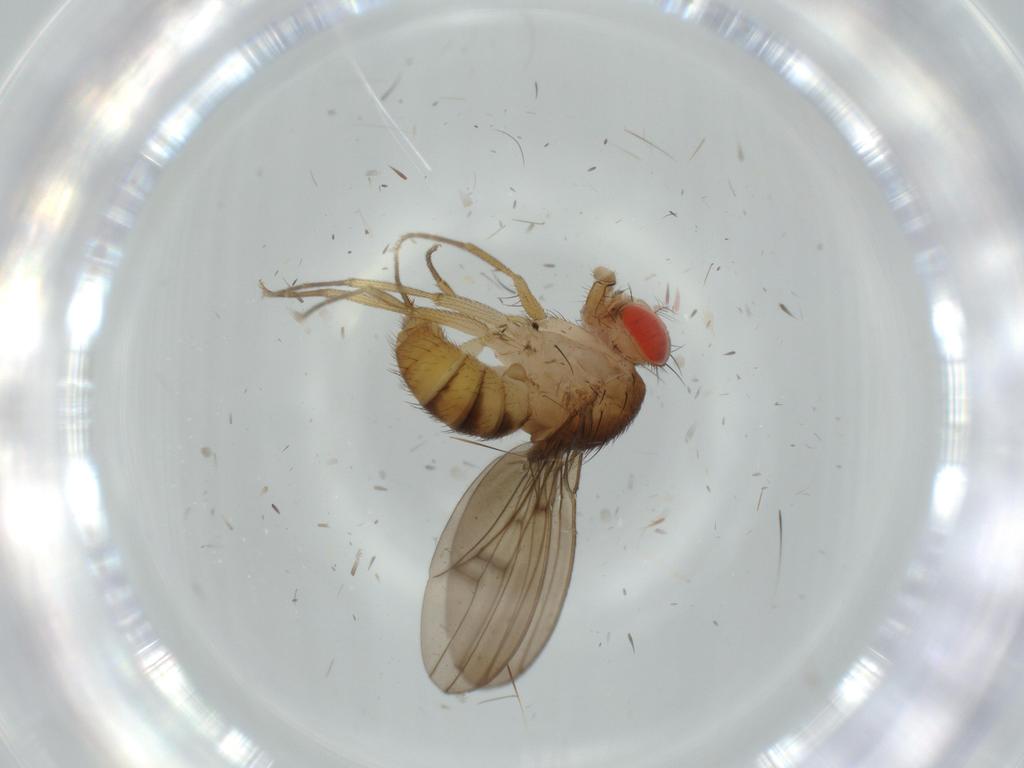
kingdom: Animalia
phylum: Arthropoda
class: Insecta
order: Diptera
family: Drosophilidae
